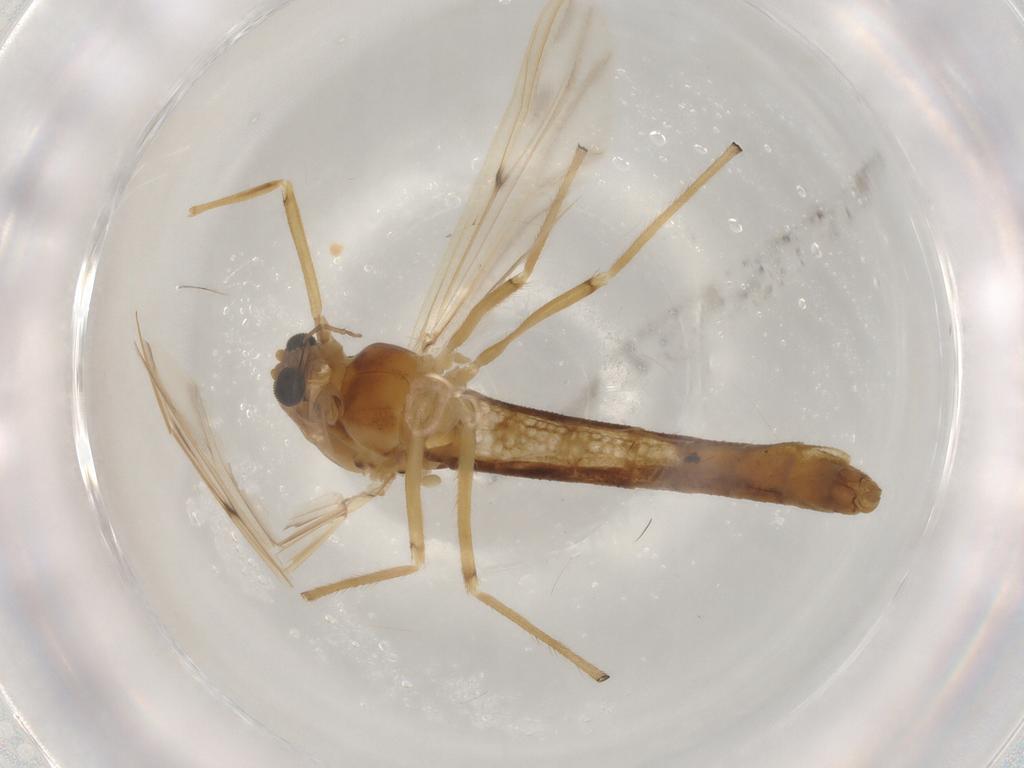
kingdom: Animalia
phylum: Arthropoda
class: Insecta
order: Diptera
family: Chironomidae
